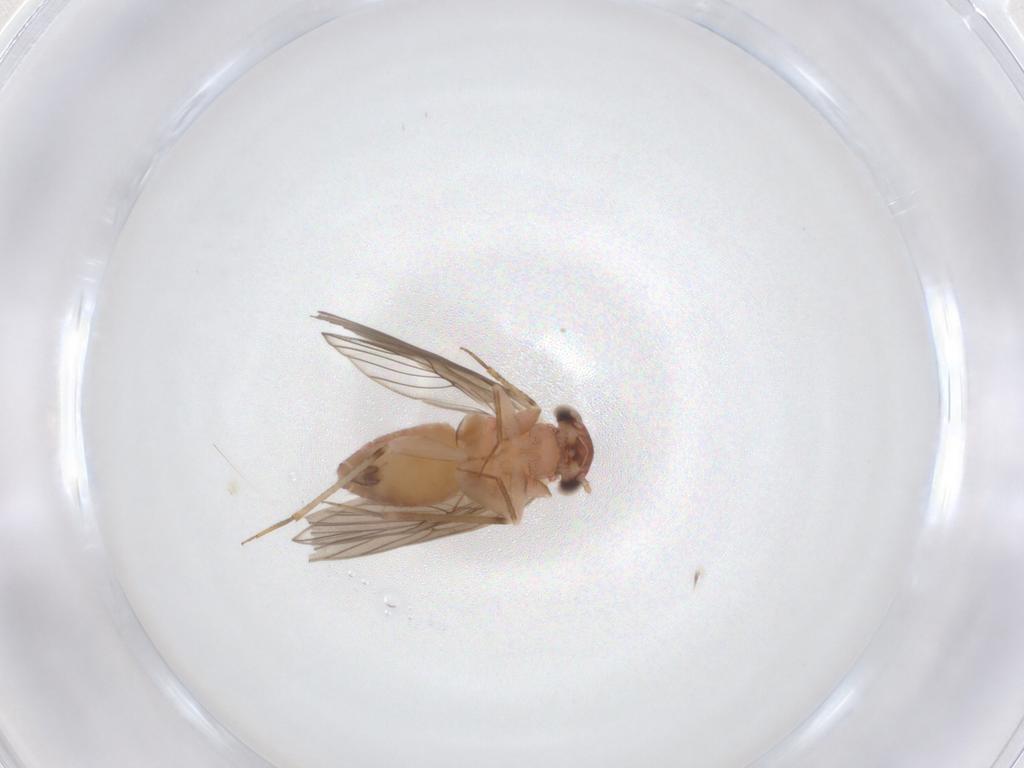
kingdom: Animalia
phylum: Arthropoda
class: Insecta
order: Psocodea
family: Lepidopsocidae
